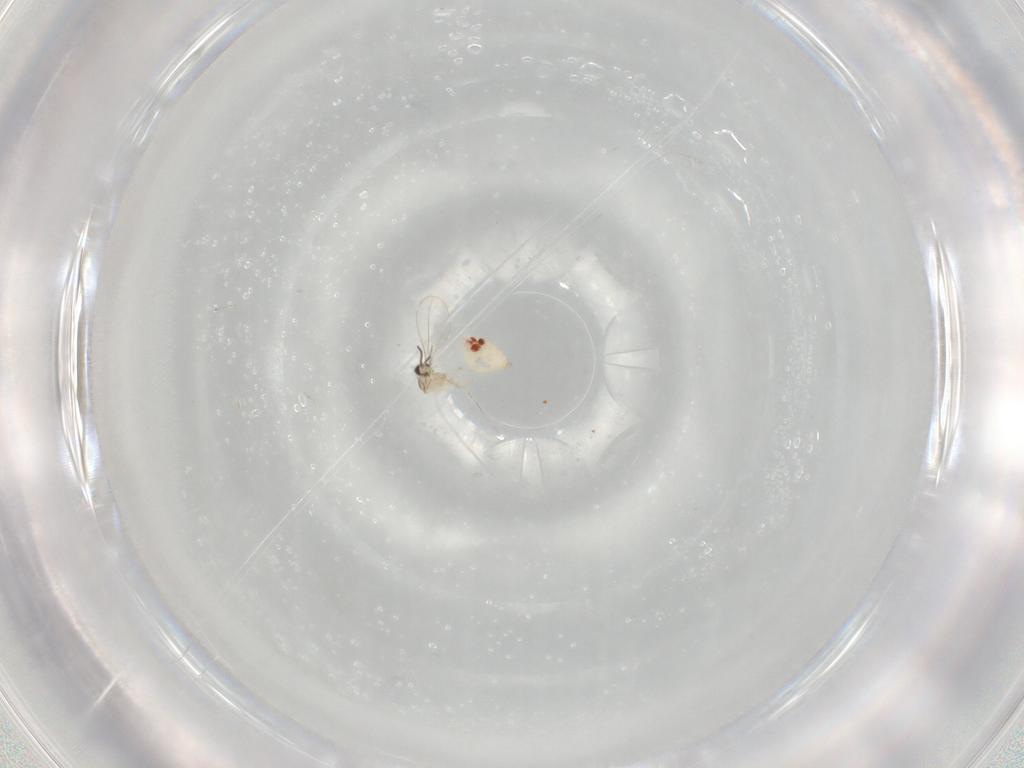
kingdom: Animalia
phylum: Arthropoda
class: Insecta
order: Diptera
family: Cecidomyiidae
